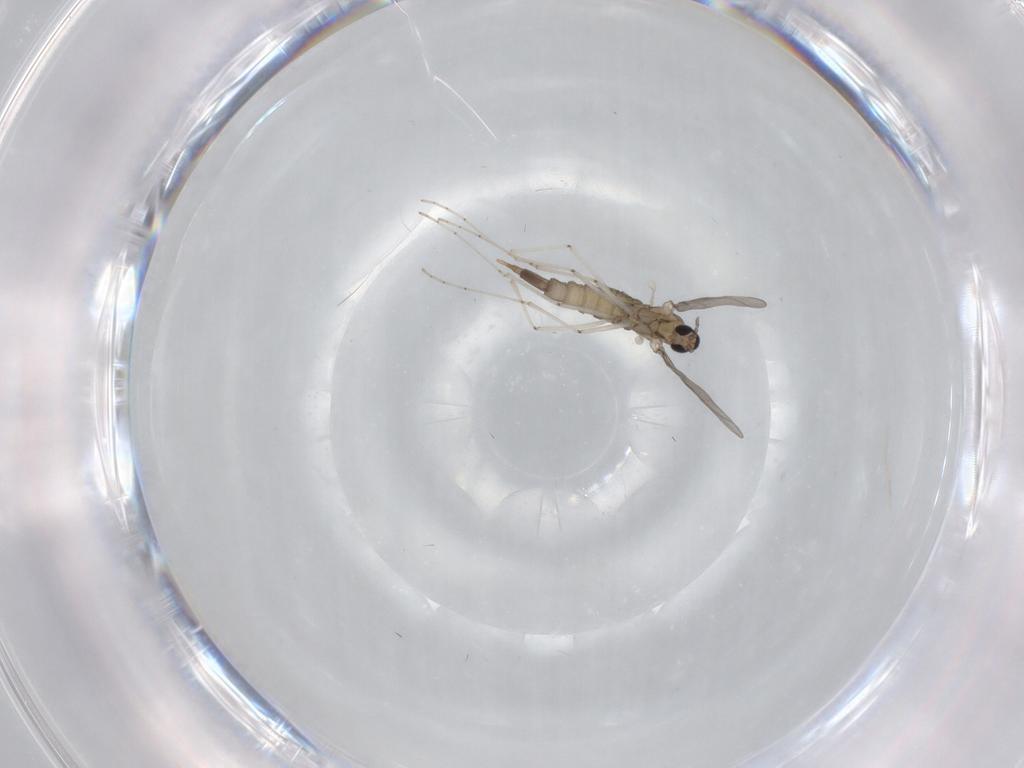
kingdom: Animalia
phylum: Arthropoda
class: Insecta
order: Diptera
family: Cecidomyiidae
